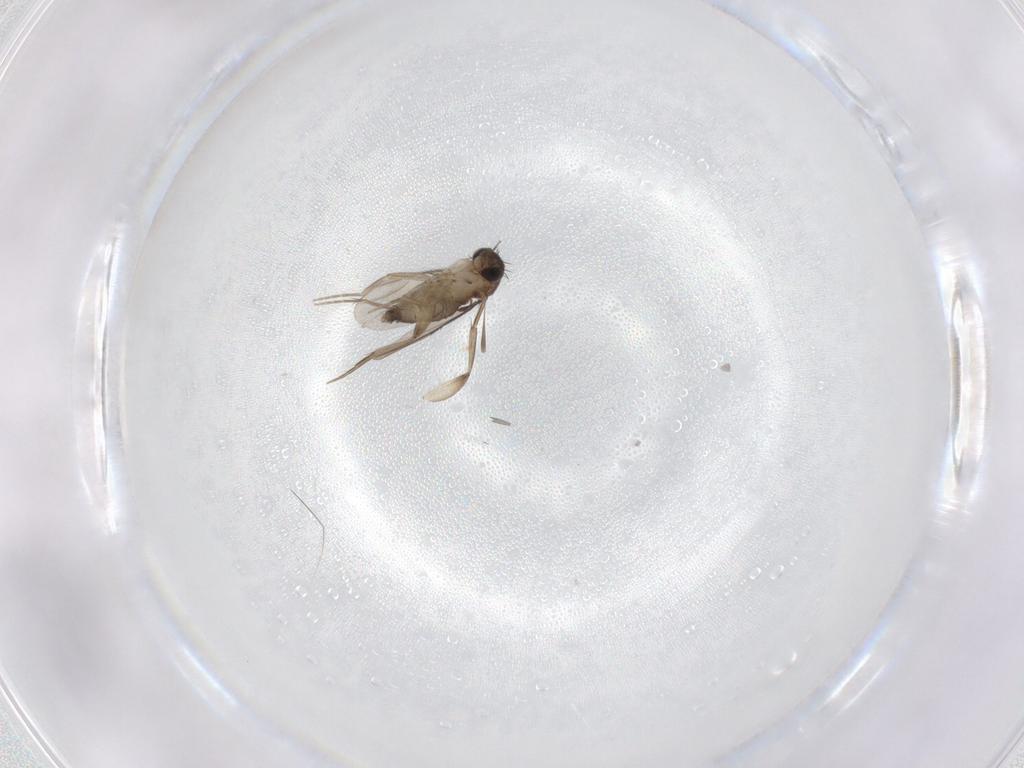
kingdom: Animalia
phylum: Arthropoda
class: Insecta
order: Diptera
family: Phoridae
